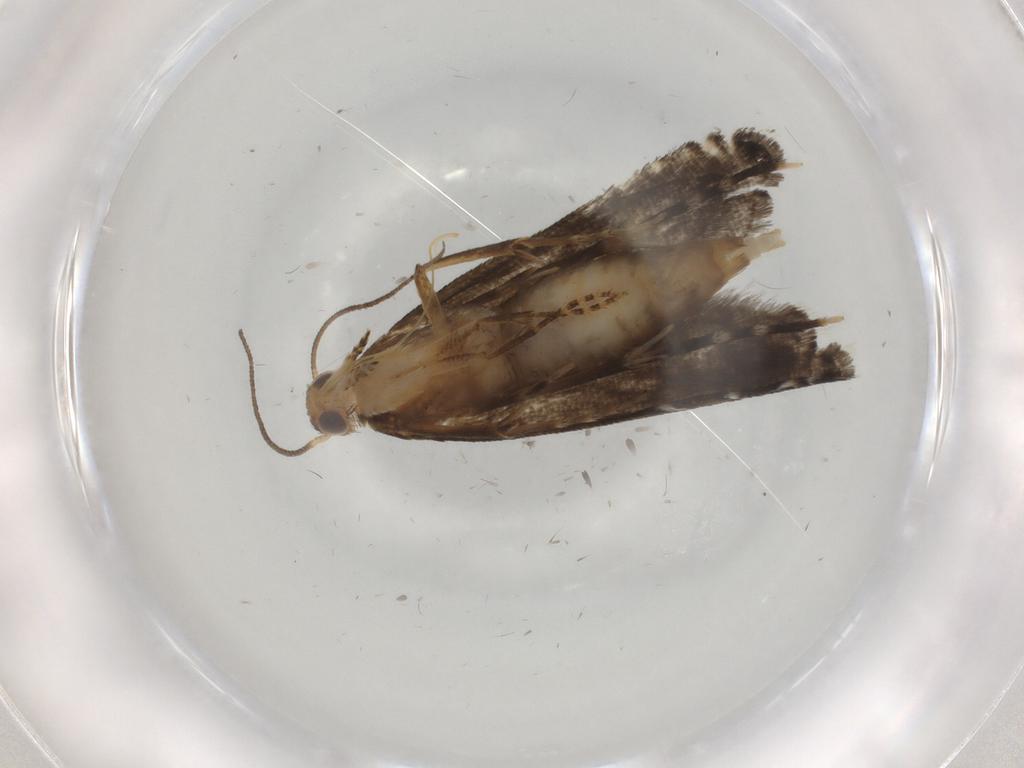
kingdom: Animalia
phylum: Arthropoda
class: Insecta
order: Lepidoptera
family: Glyphipterigidae
